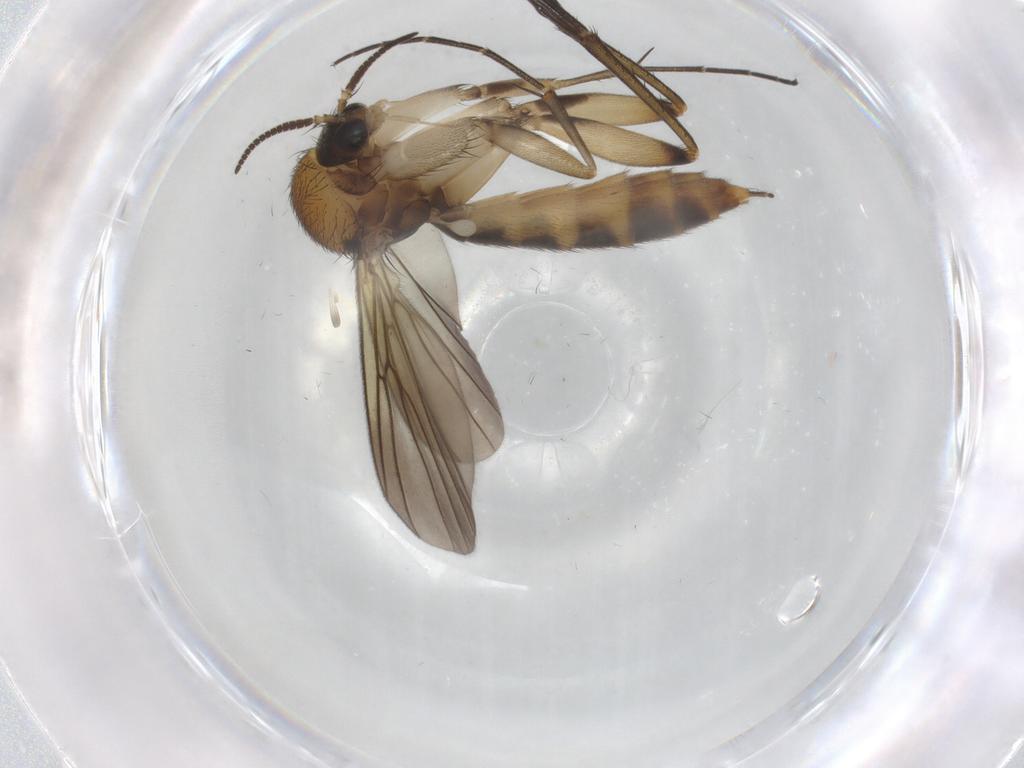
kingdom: Animalia
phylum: Arthropoda
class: Insecta
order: Diptera
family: Mycetophilidae
